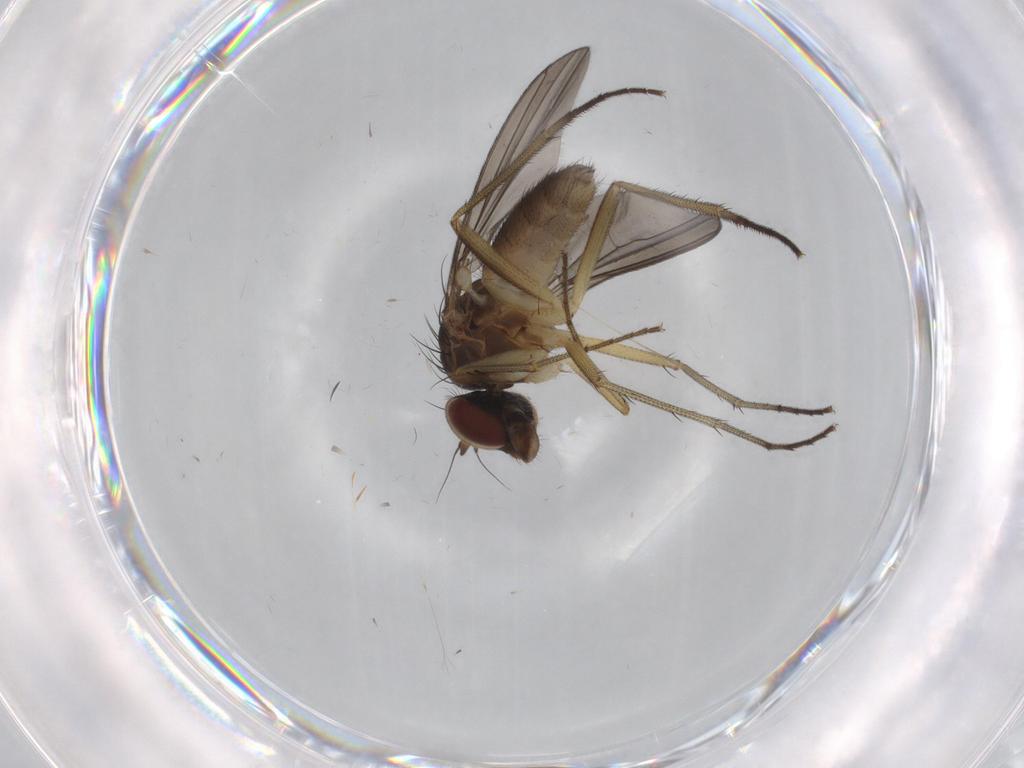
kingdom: Animalia
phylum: Arthropoda
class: Insecta
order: Diptera
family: Dolichopodidae
